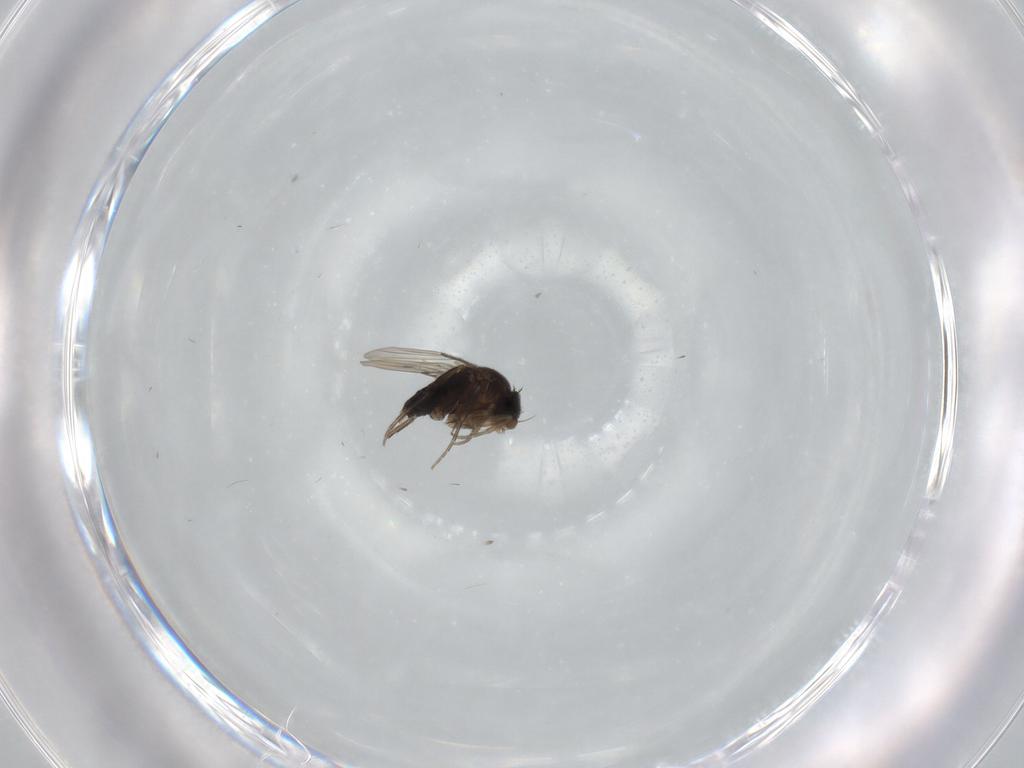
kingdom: Animalia
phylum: Arthropoda
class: Insecta
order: Diptera
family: Phoridae
